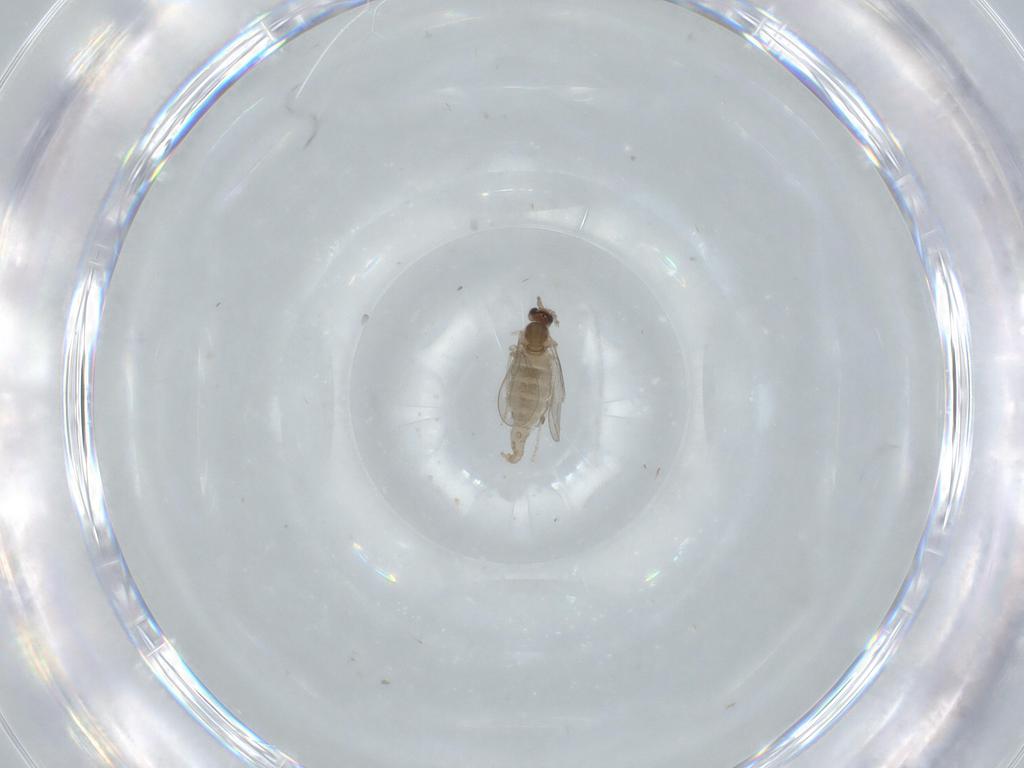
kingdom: Animalia
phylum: Arthropoda
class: Insecta
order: Diptera
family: Cecidomyiidae
